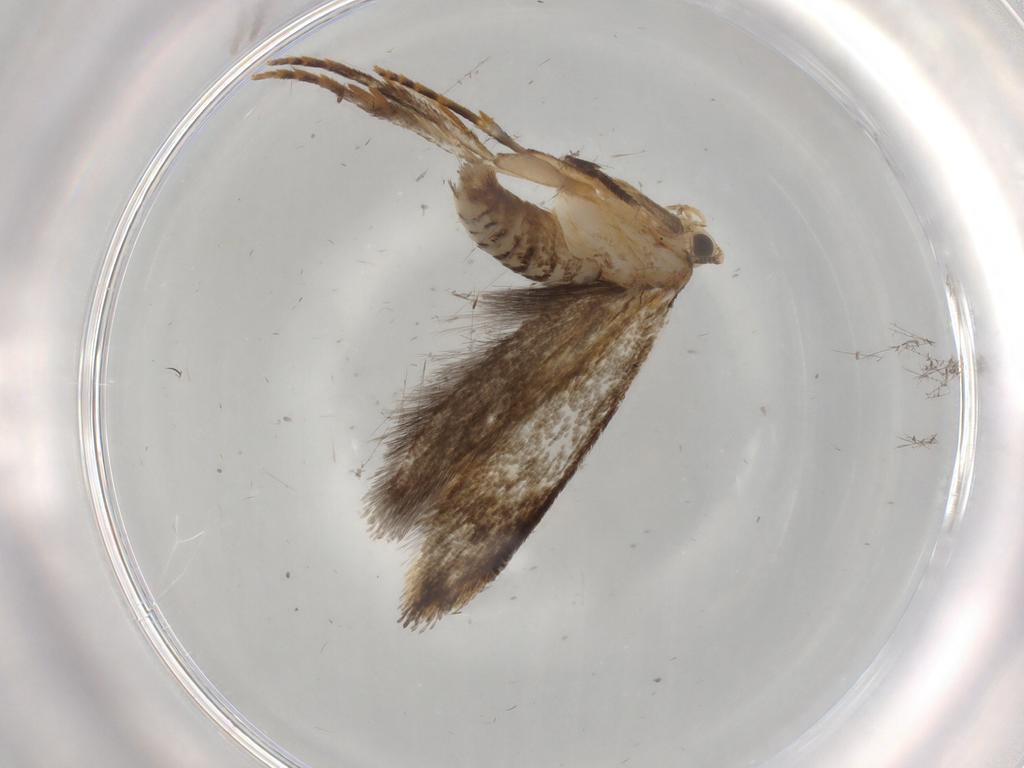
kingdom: Animalia
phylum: Arthropoda
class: Insecta
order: Lepidoptera
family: Tineidae
